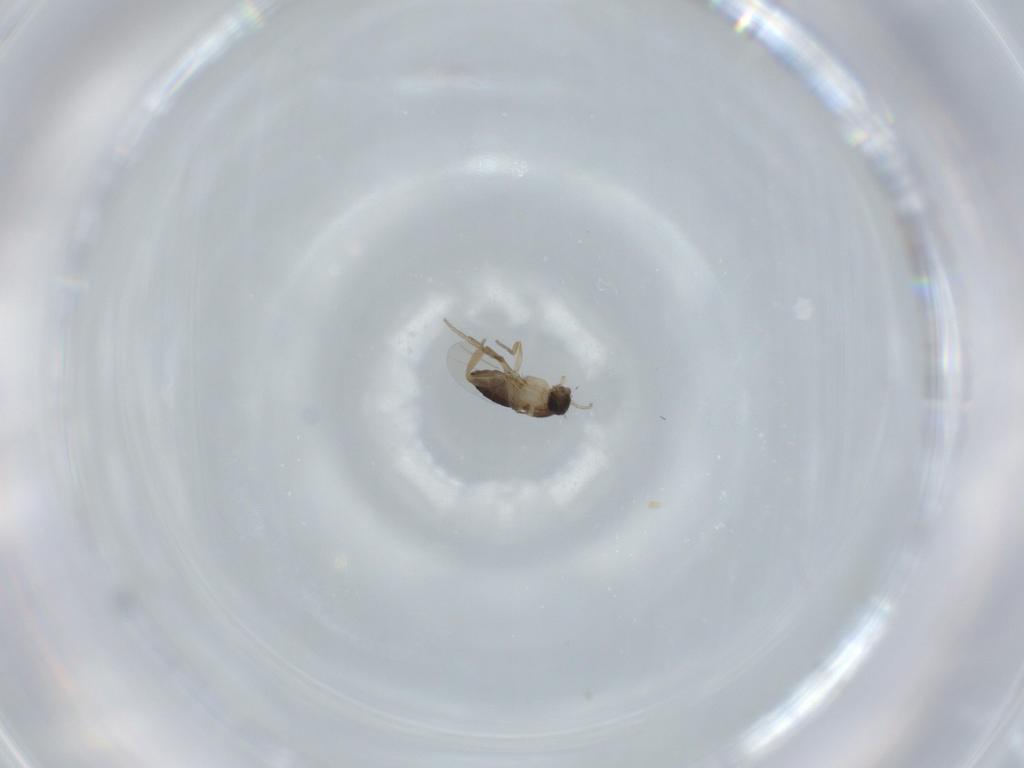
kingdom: Animalia
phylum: Arthropoda
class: Insecta
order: Diptera
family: Phoridae
